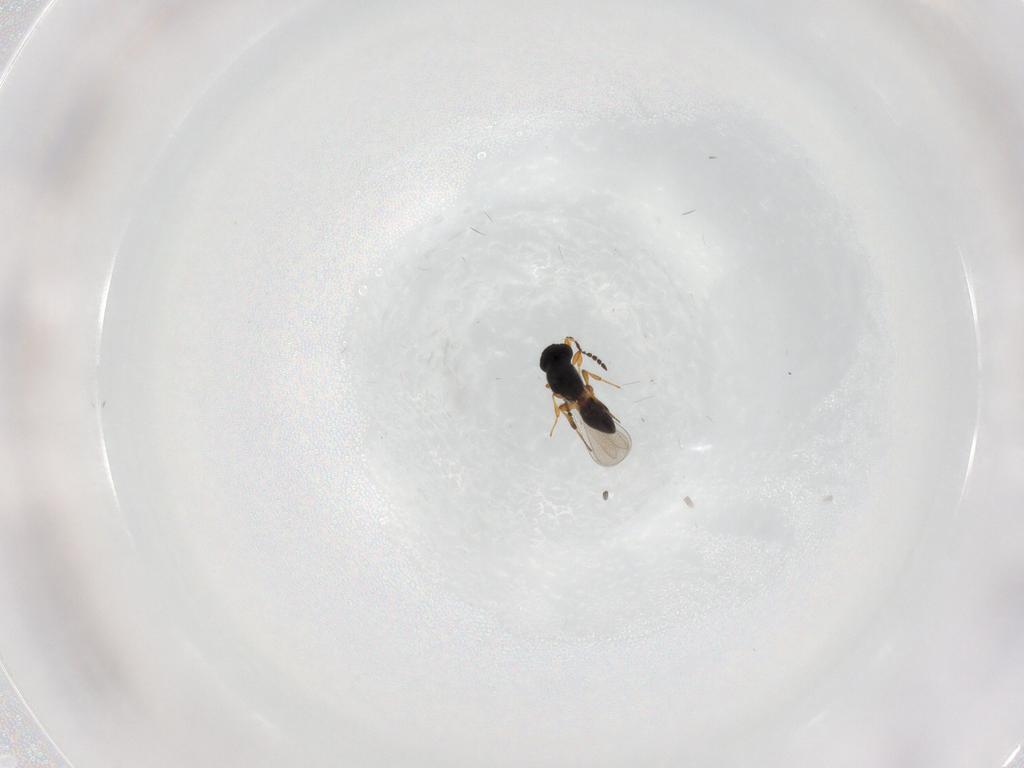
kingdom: Animalia
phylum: Arthropoda
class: Insecta
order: Hymenoptera
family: Platygastridae
